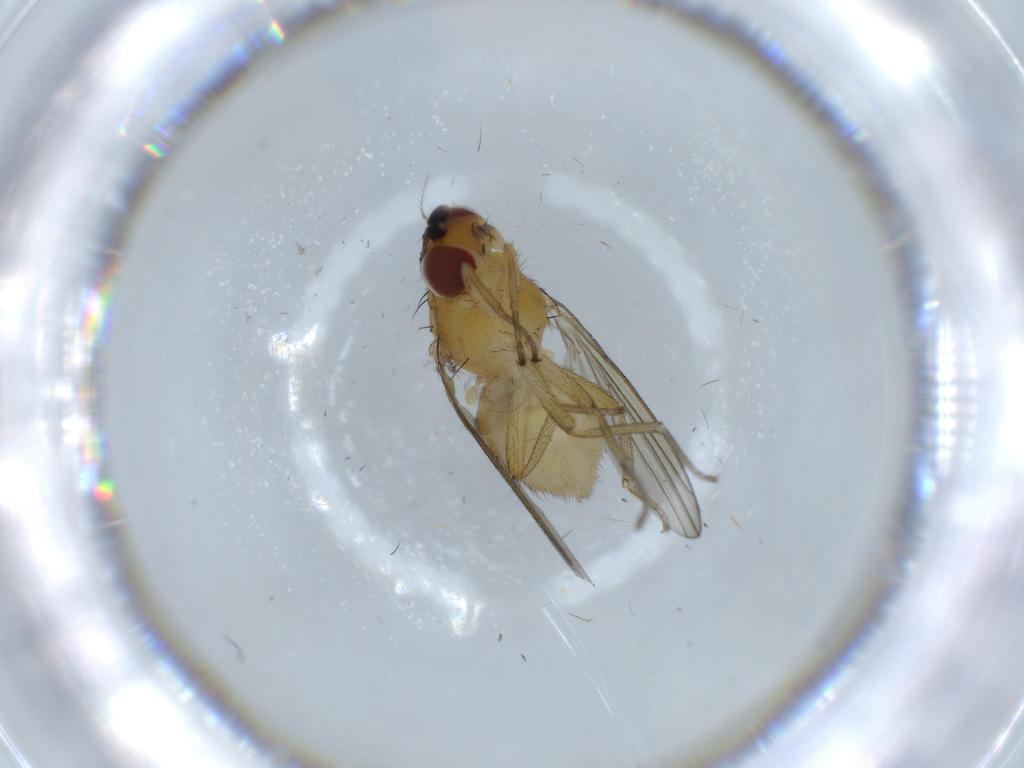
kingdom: Animalia
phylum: Arthropoda
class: Insecta
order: Diptera
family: Lauxaniidae
